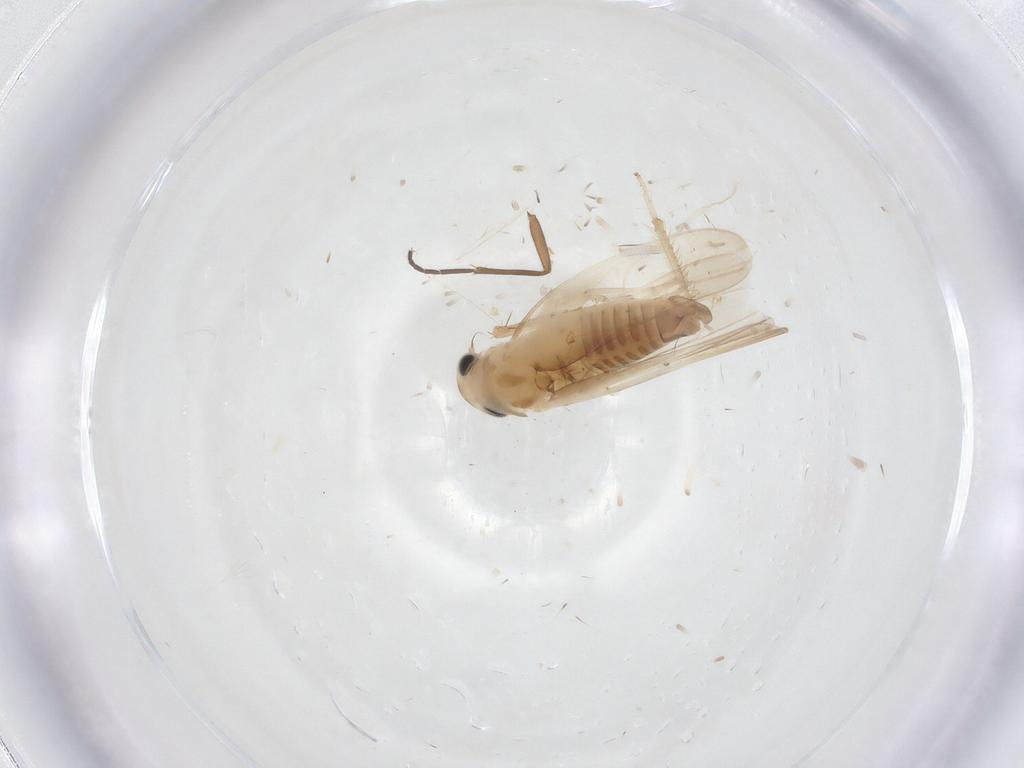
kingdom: Animalia
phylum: Arthropoda
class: Insecta
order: Hemiptera
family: Cicadellidae
